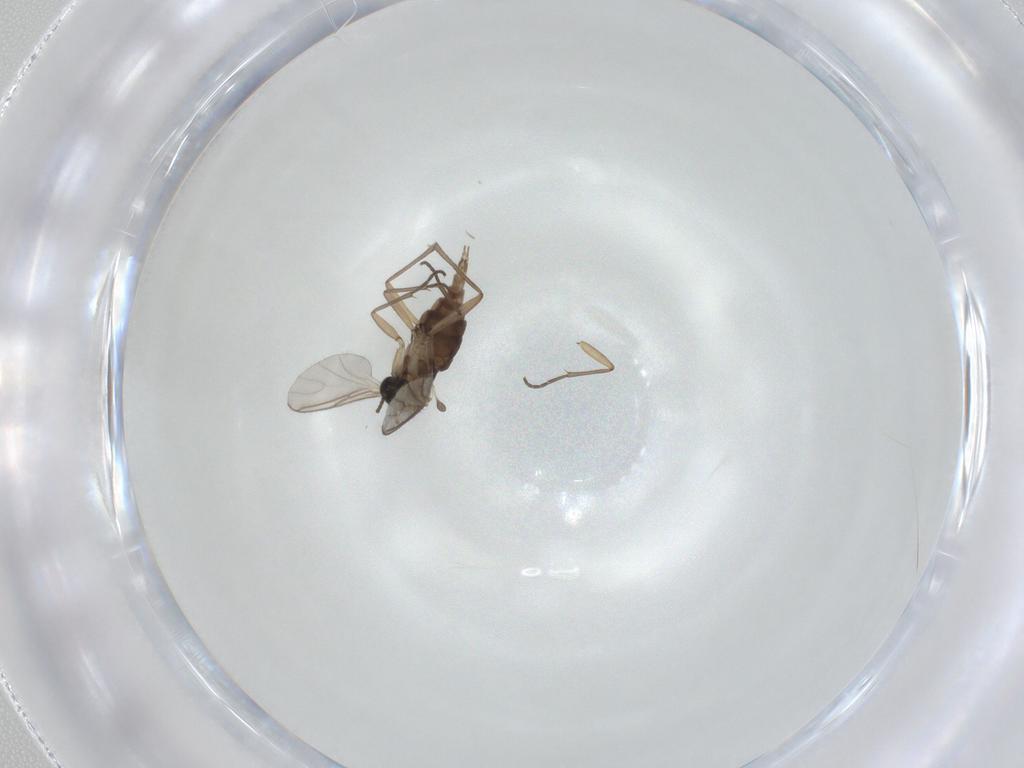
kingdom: Animalia
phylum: Arthropoda
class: Insecta
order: Diptera
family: Sciaridae
